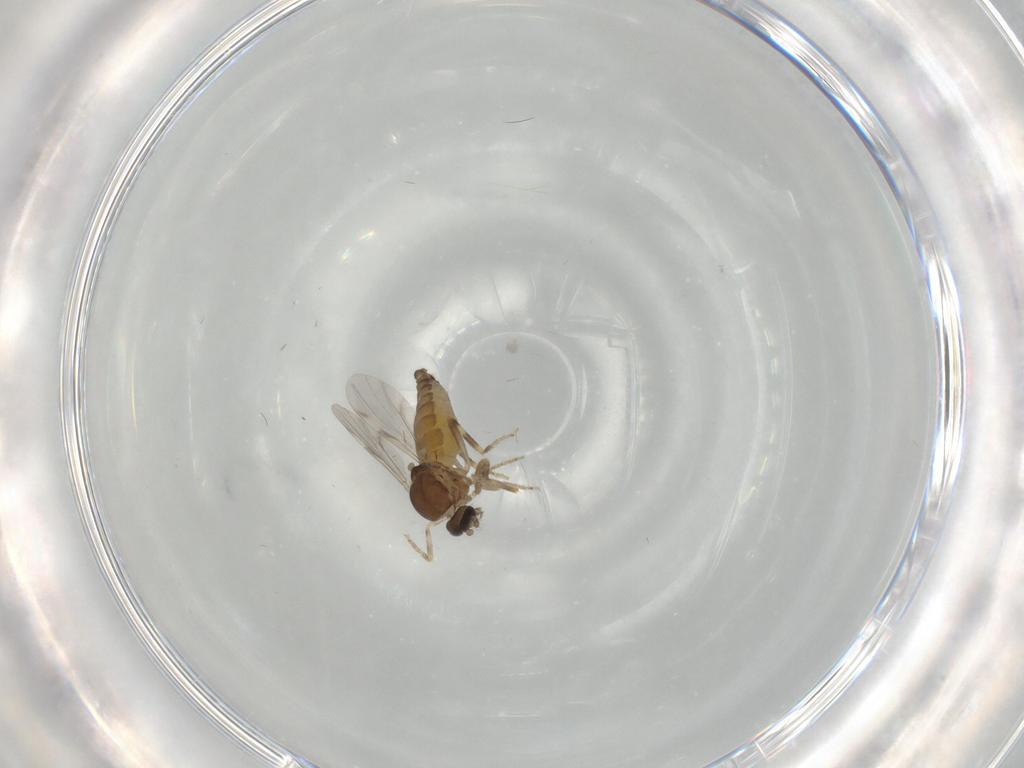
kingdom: Animalia
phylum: Arthropoda
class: Insecta
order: Diptera
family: Ceratopogonidae
